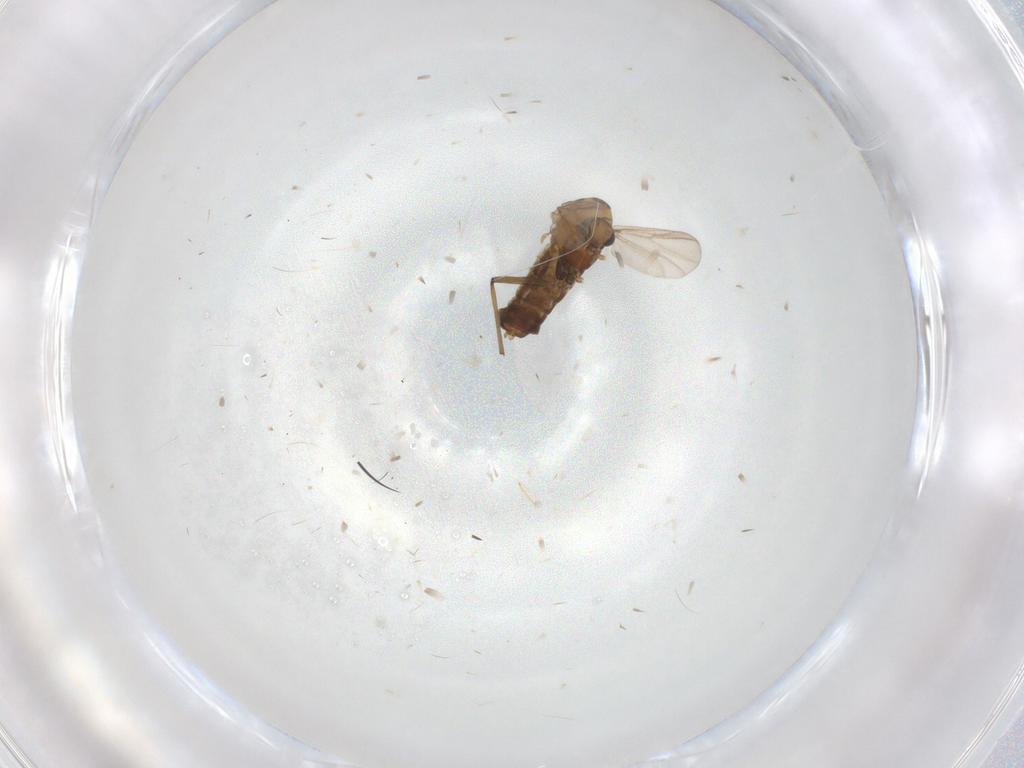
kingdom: Animalia
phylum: Arthropoda
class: Insecta
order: Diptera
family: Chironomidae
